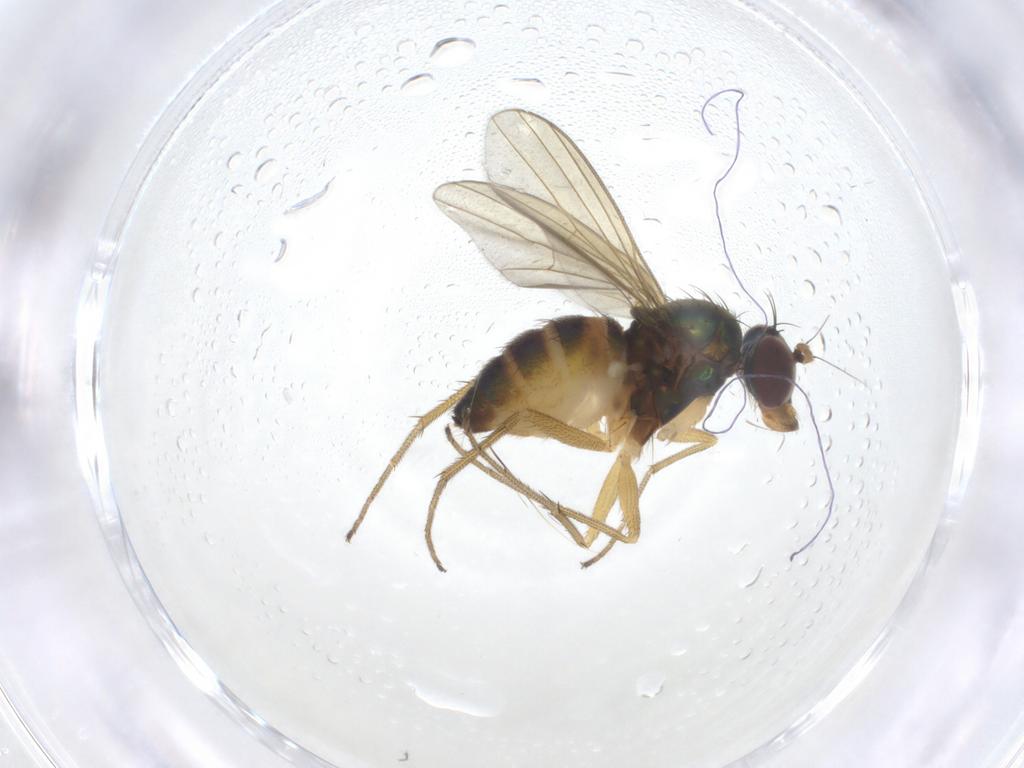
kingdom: Animalia
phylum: Arthropoda
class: Insecta
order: Diptera
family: Dolichopodidae
